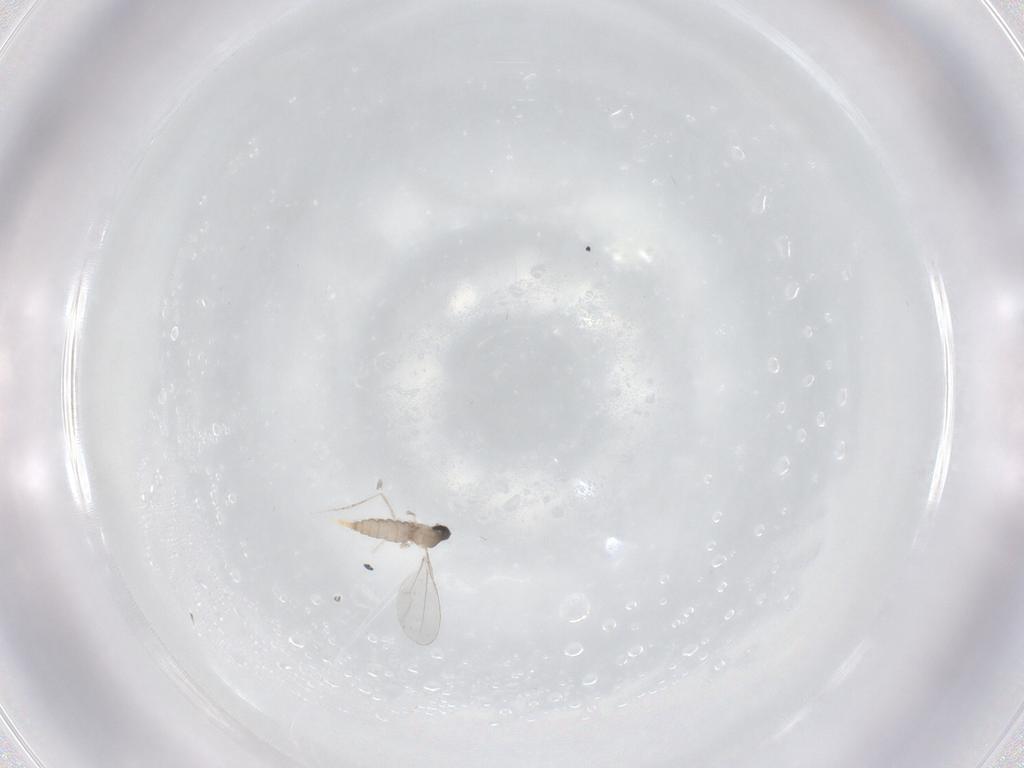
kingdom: Animalia
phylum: Arthropoda
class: Insecta
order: Diptera
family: Cecidomyiidae
